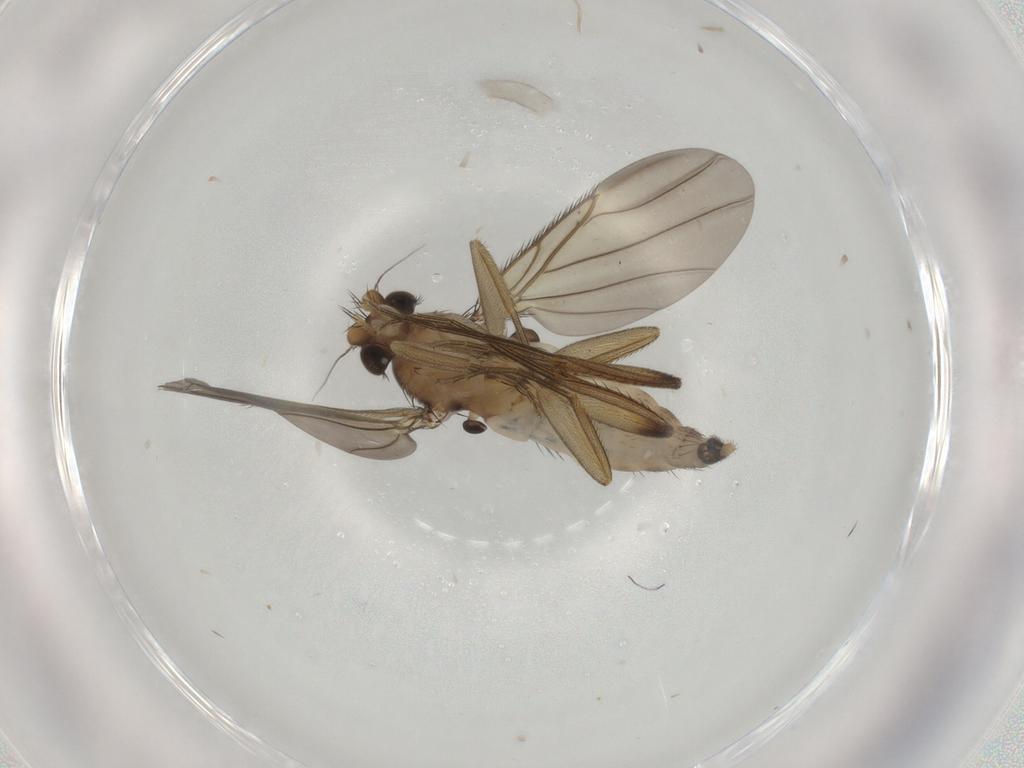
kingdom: Animalia
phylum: Arthropoda
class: Insecta
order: Diptera
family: Phoridae
